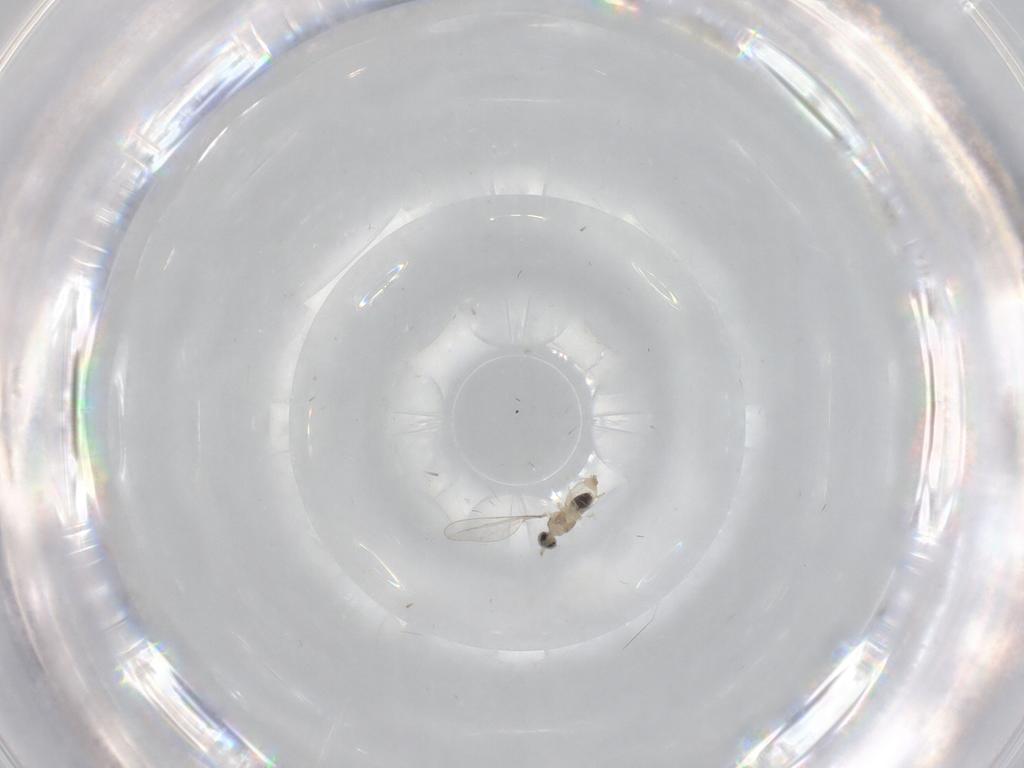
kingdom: Animalia
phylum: Arthropoda
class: Insecta
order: Diptera
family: Cecidomyiidae
